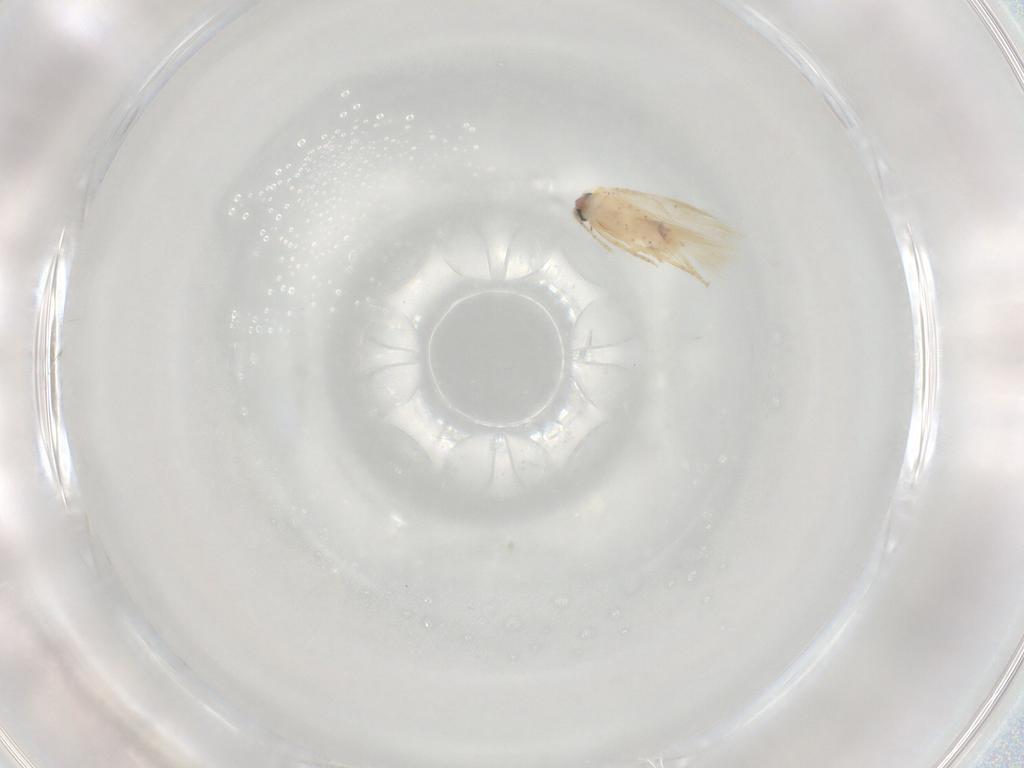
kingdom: Animalia
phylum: Arthropoda
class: Insecta
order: Lepidoptera
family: Nepticulidae
